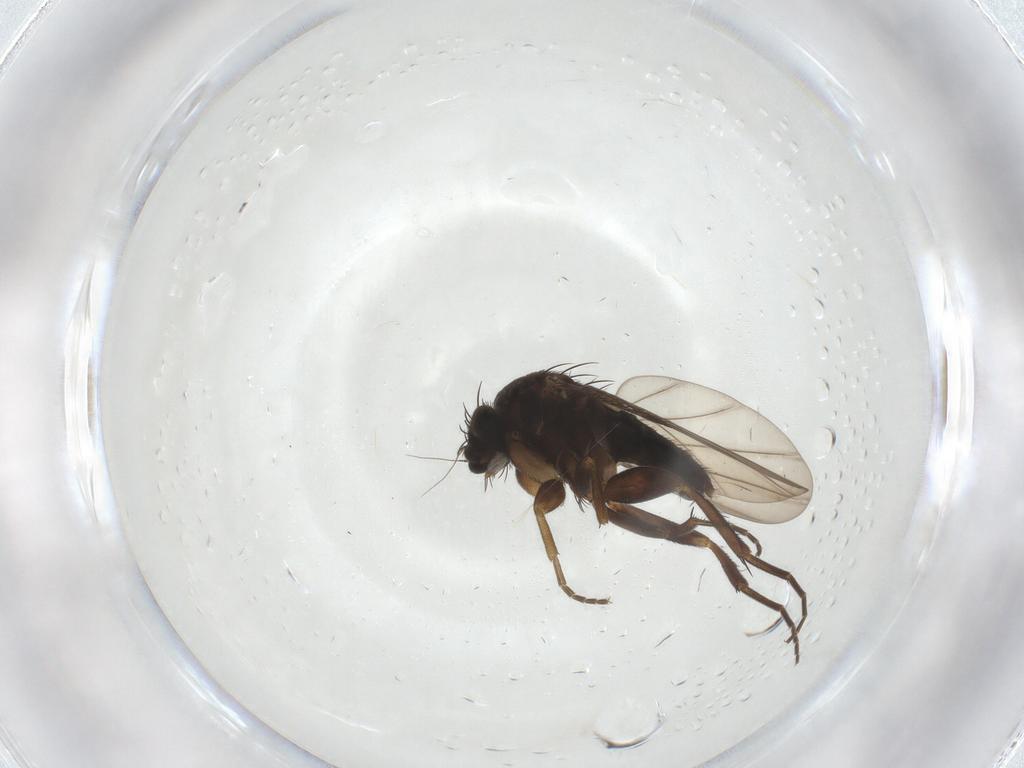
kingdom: Animalia
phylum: Arthropoda
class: Insecta
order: Diptera
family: Phoridae
